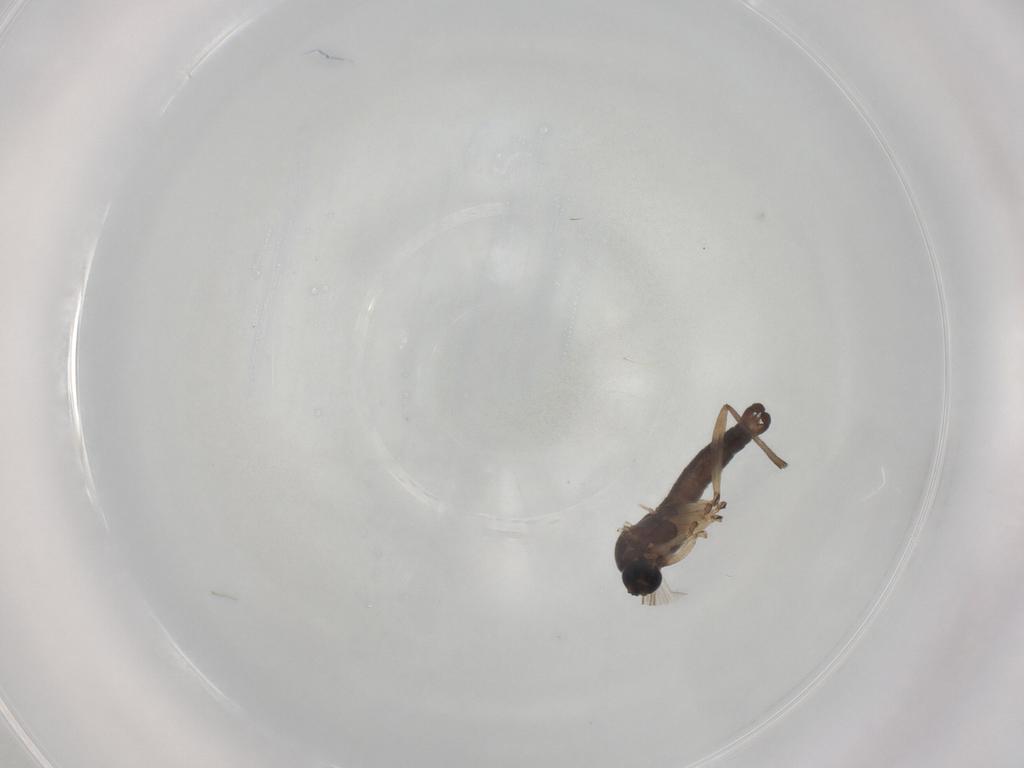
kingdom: Animalia
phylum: Arthropoda
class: Insecta
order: Diptera
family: Sciaridae
